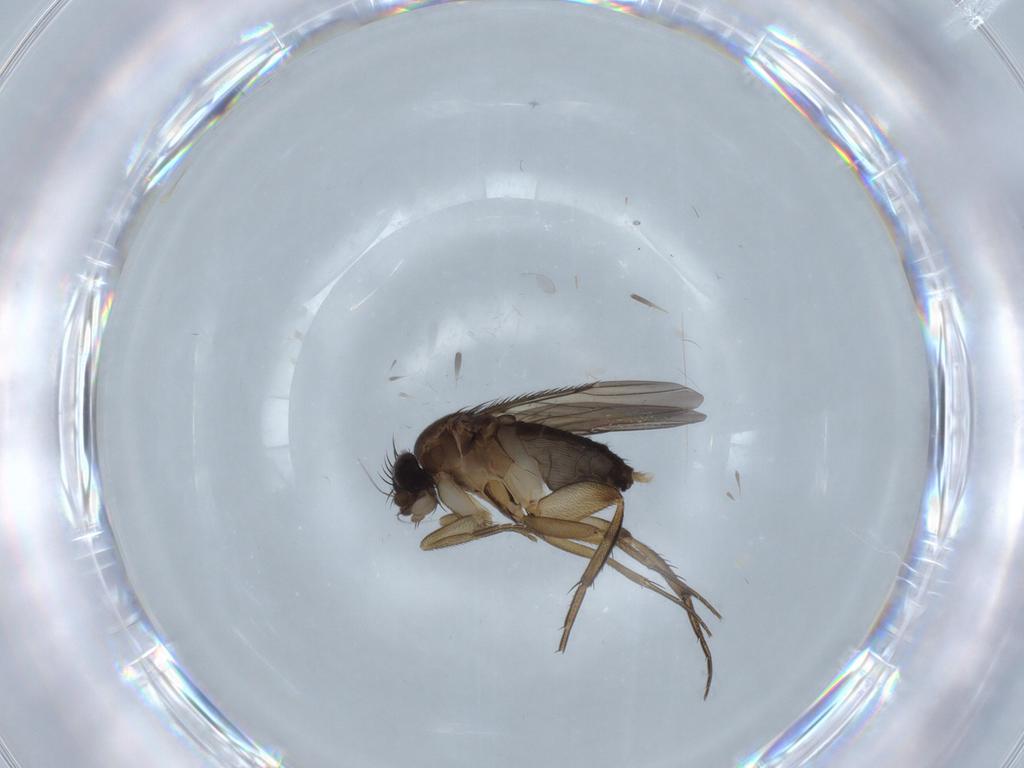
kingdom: Animalia
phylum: Arthropoda
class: Insecta
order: Diptera
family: Phoridae
